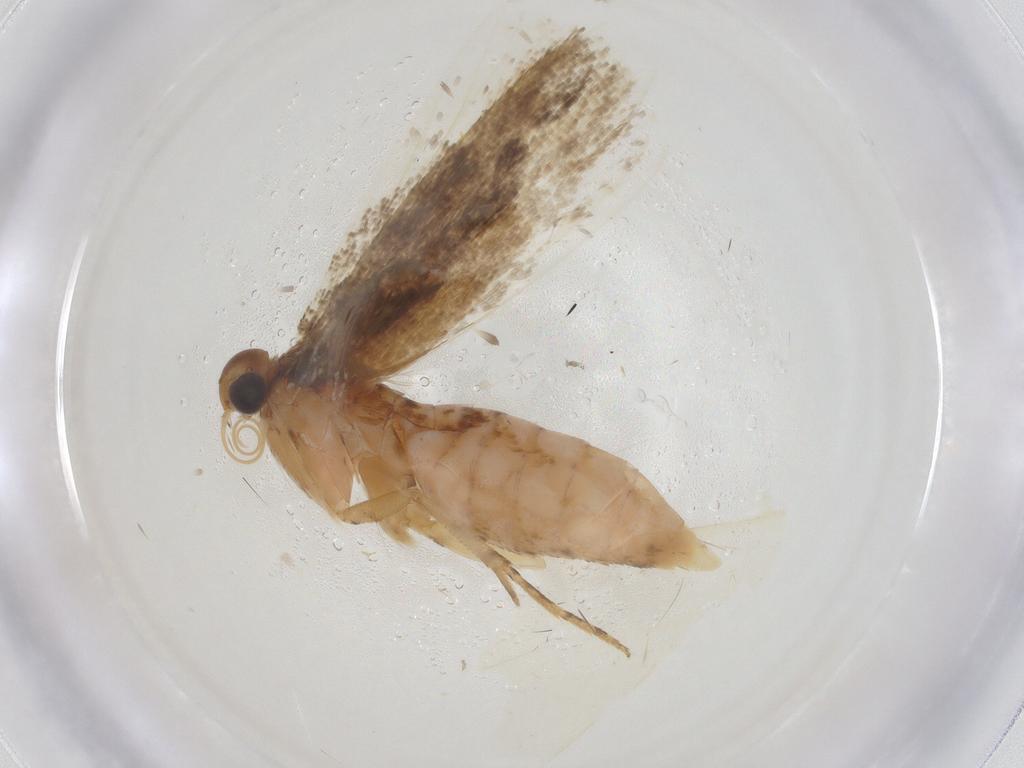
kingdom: Animalia
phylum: Arthropoda
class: Insecta
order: Lepidoptera
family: Gelechiidae
